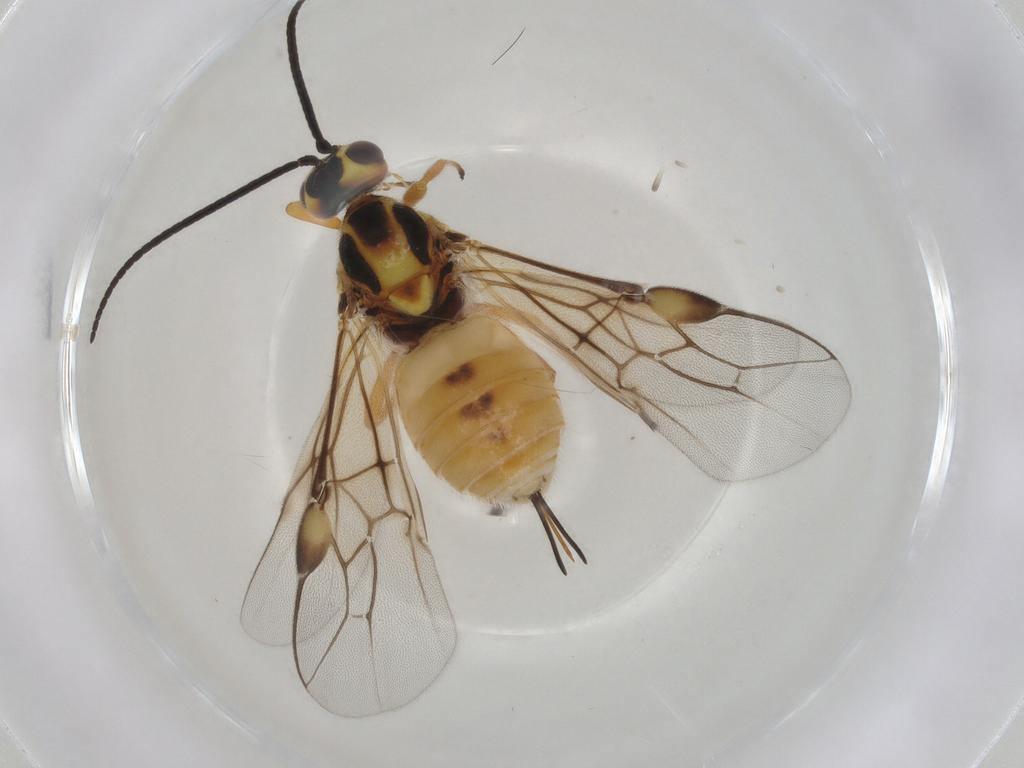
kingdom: Animalia
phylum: Arthropoda
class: Insecta
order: Hymenoptera
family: Braconidae
